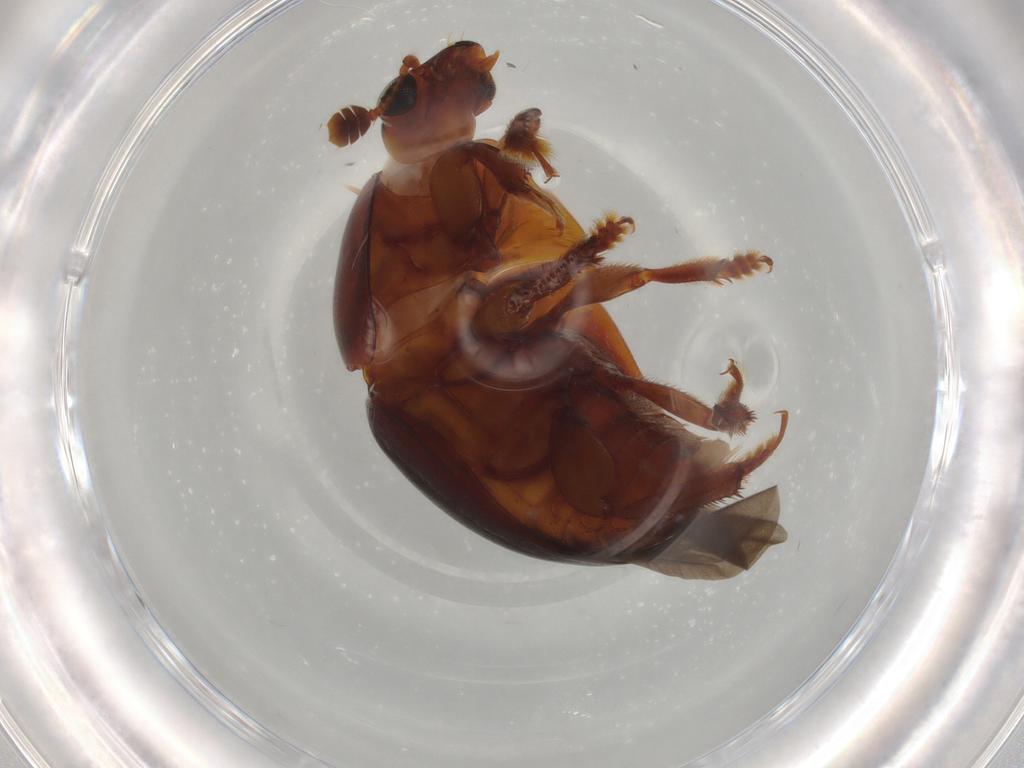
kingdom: Animalia
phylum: Arthropoda
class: Insecta
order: Coleoptera
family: Nitidulidae
